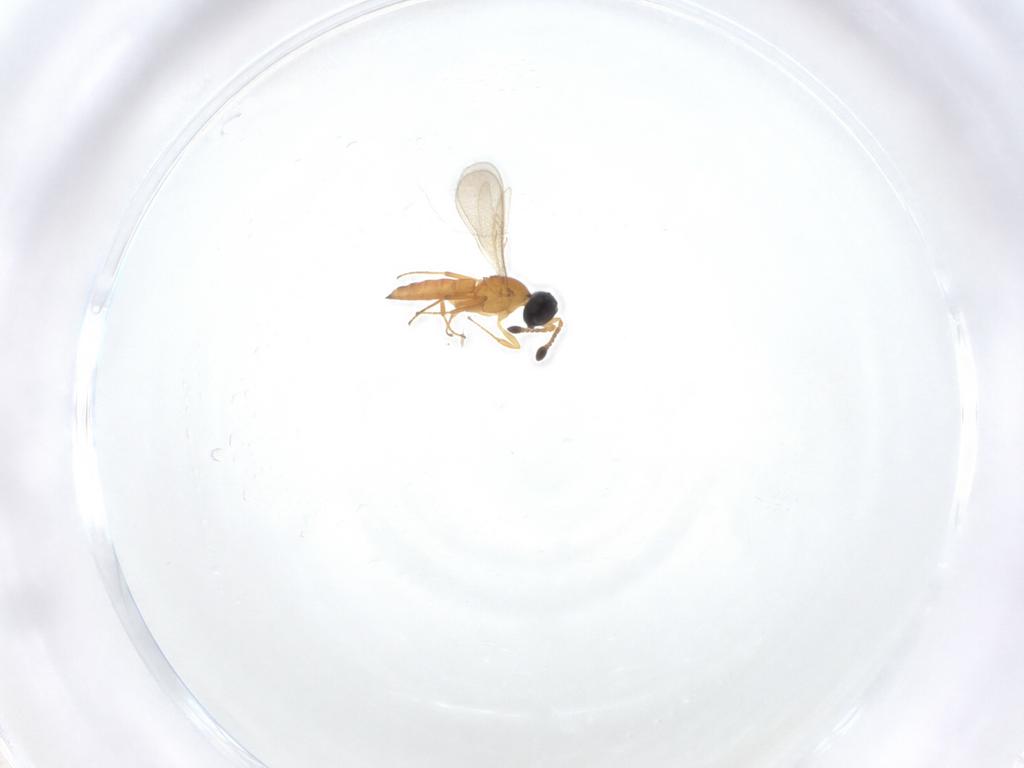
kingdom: Animalia
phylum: Arthropoda
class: Insecta
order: Hymenoptera
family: Scelionidae
